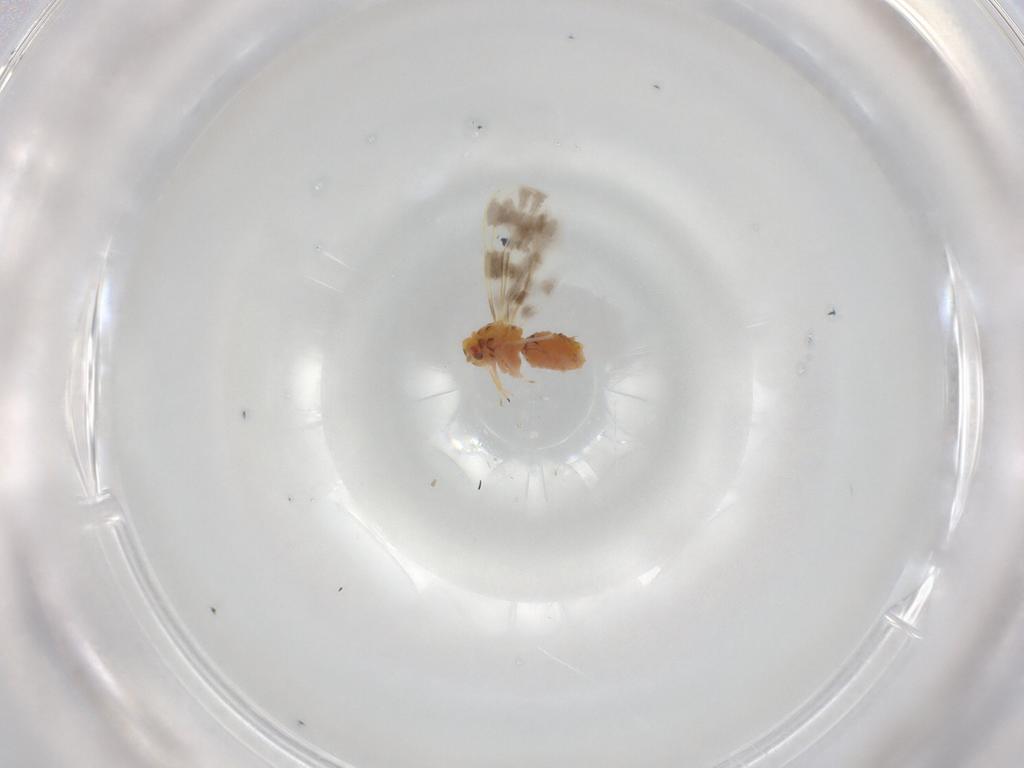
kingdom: Animalia
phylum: Arthropoda
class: Insecta
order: Hemiptera
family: Aleyrodidae
